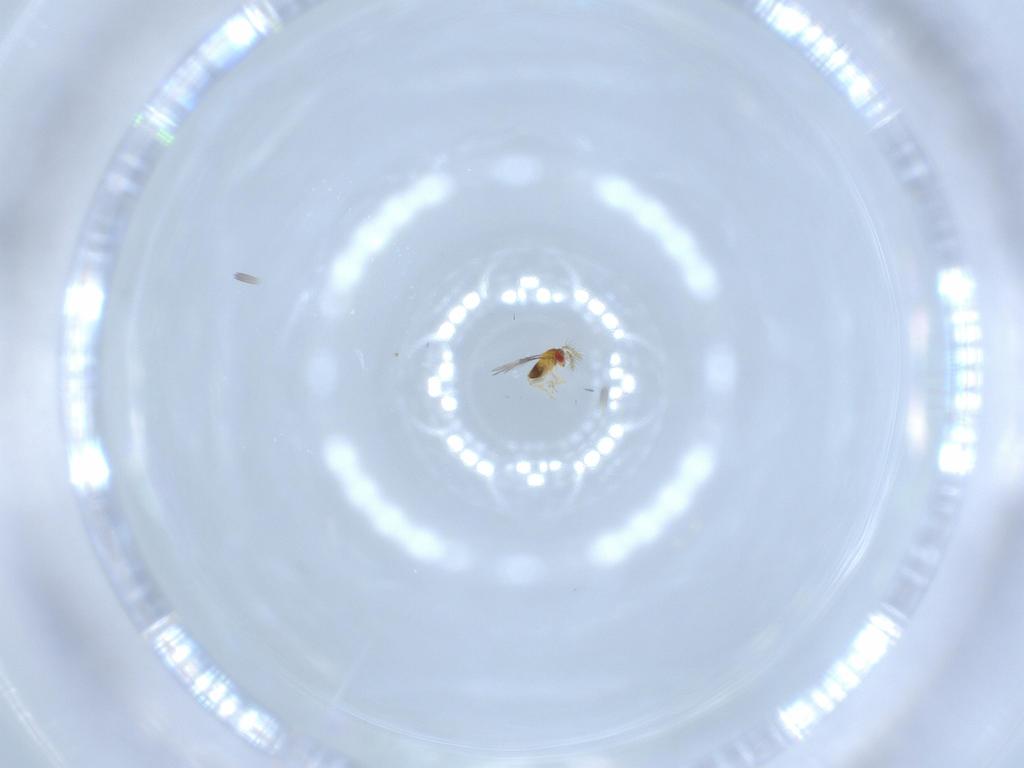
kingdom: Animalia
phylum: Arthropoda
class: Insecta
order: Hymenoptera
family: Trichogrammatidae
